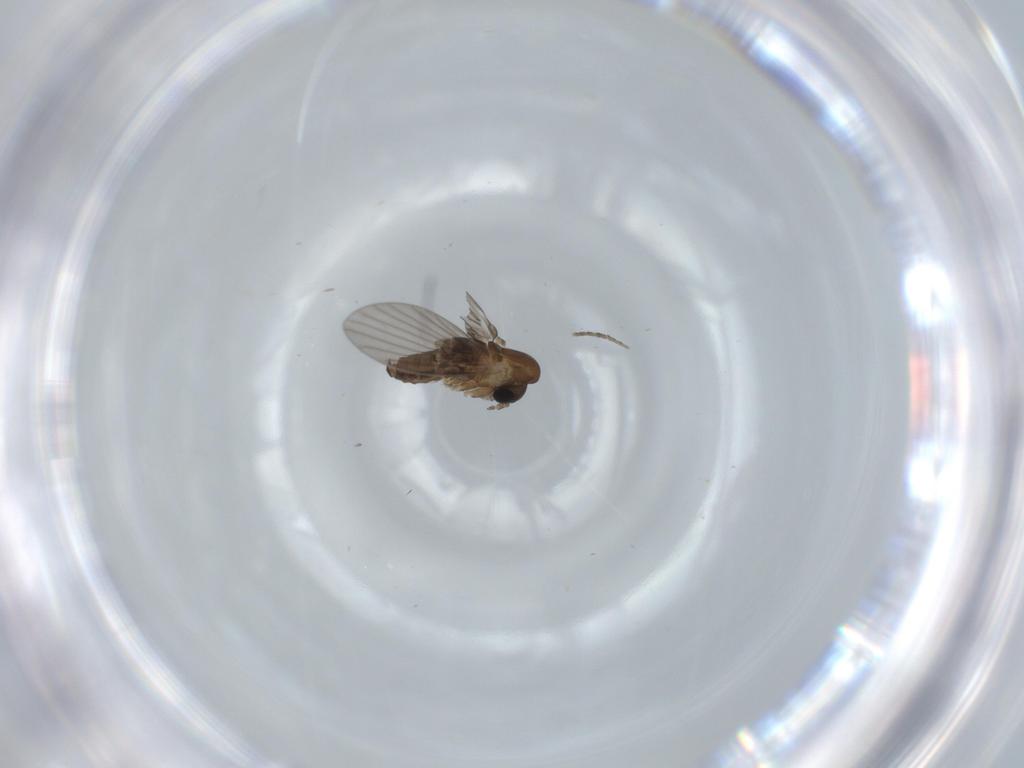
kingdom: Animalia
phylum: Arthropoda
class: Insecta
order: Diptera
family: Psychodidae
